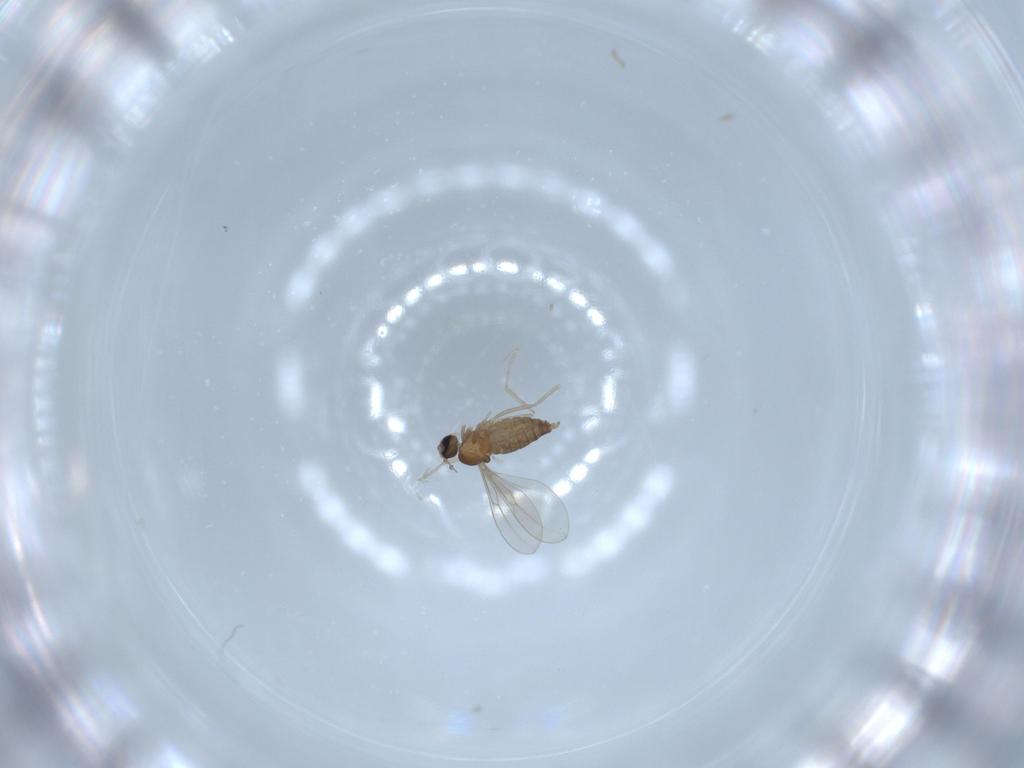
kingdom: Animalia
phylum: Arthropoda
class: Insecta
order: Diptera
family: Cecidomyiidae
